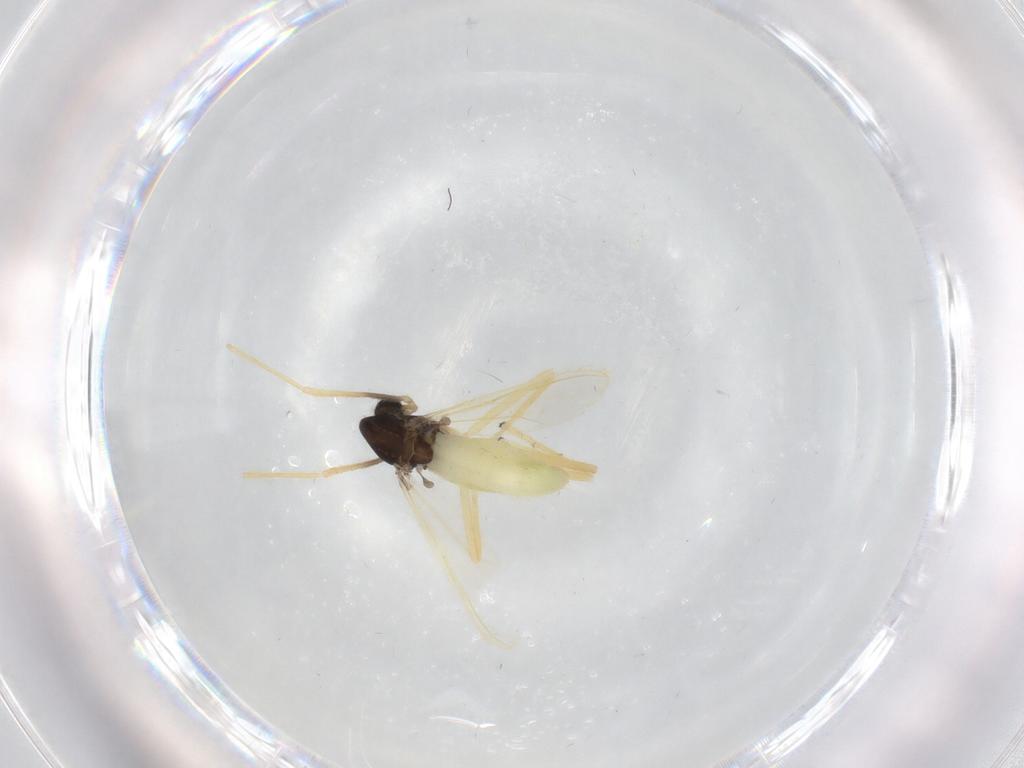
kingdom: Animalia
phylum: Arthropoda
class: Insecta
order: Diptera
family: Chironomidae
